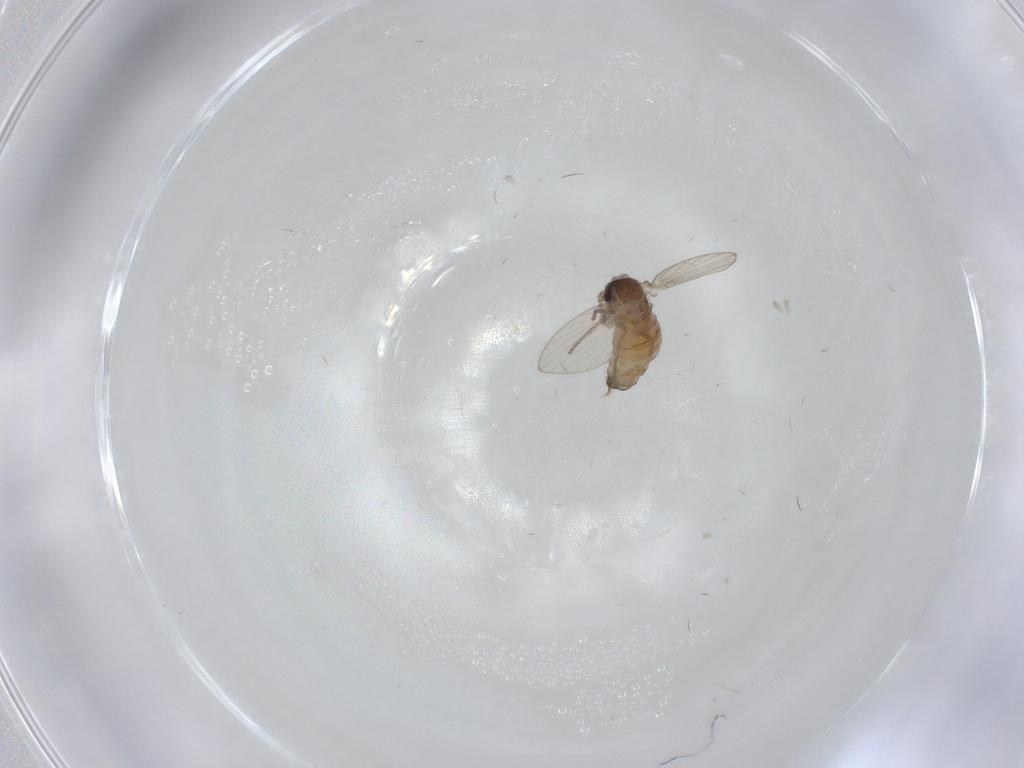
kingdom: Animalia
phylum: Arthropoda
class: Insecta
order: Diptera
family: Psychodidae
